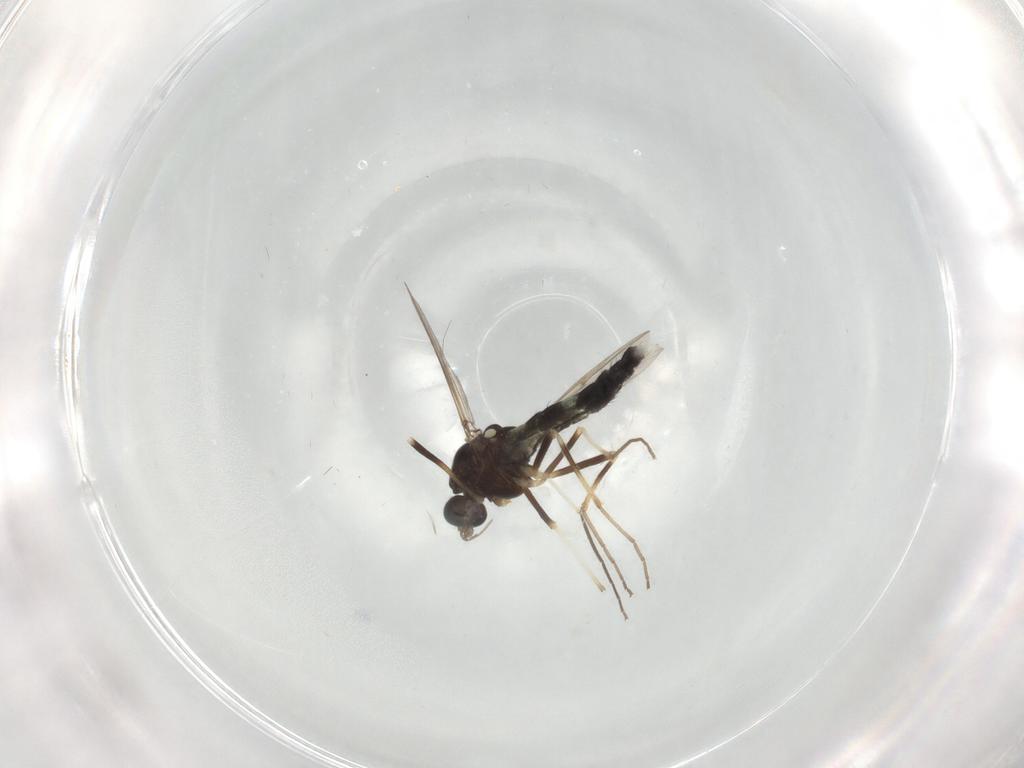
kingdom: Animalia
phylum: Arthropoda
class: Insecta
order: Diptera
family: Chironomidae
